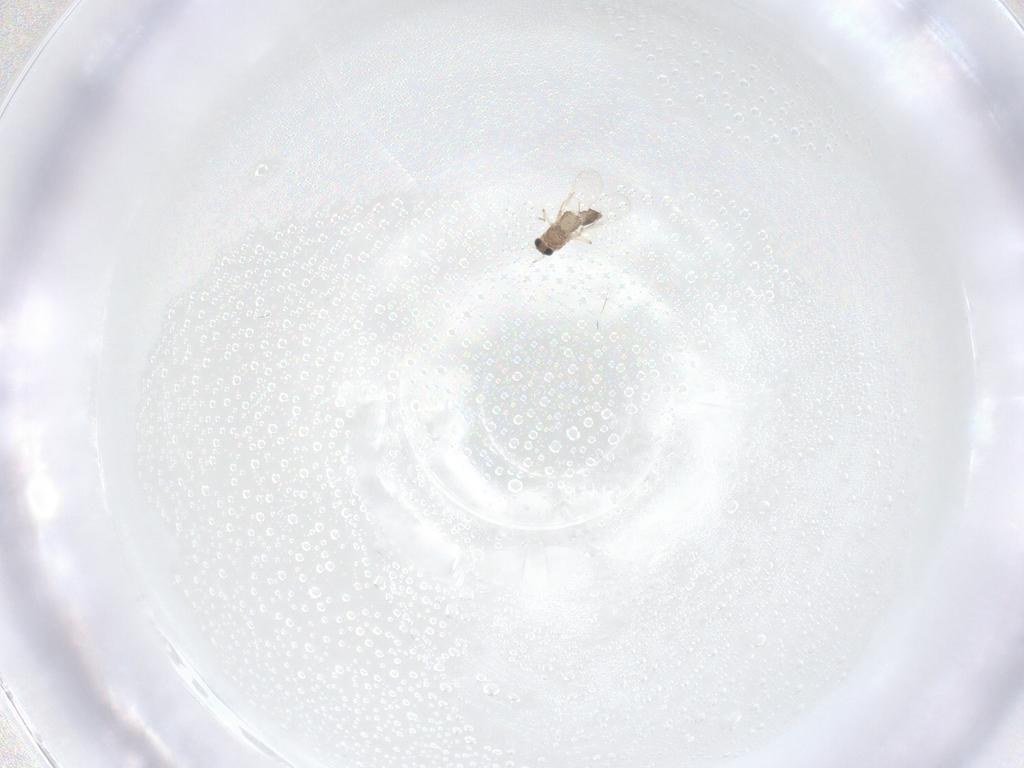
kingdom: Animalia
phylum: Arthropoda
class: Insecta
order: Diptera
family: Chironomidae
